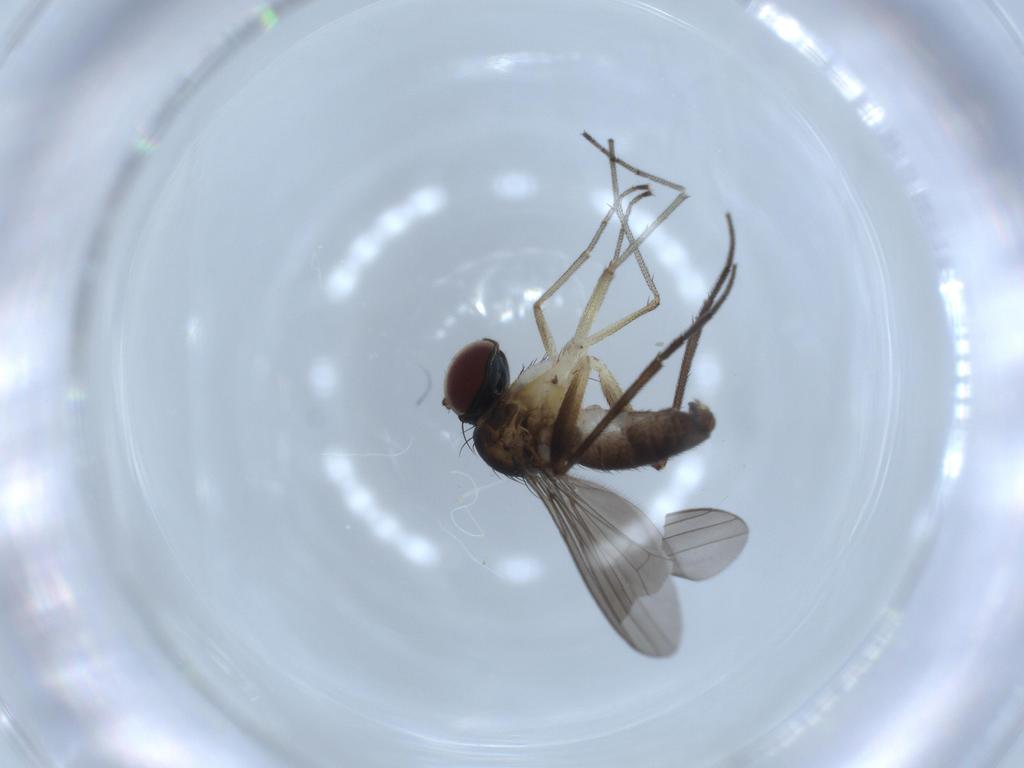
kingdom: Animalia
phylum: Arthropoda
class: Insecta
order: Diptera
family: Dolichopodidae
